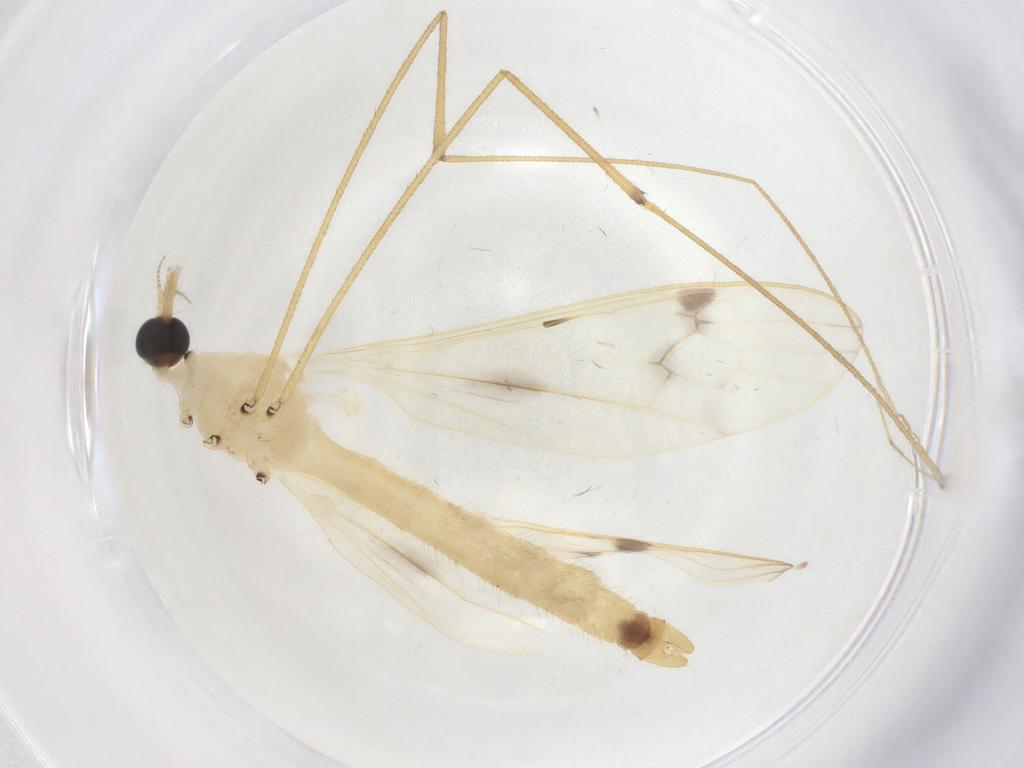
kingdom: Animalia
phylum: Arthropoda
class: Insecta
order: Diptera
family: Limoniidae
